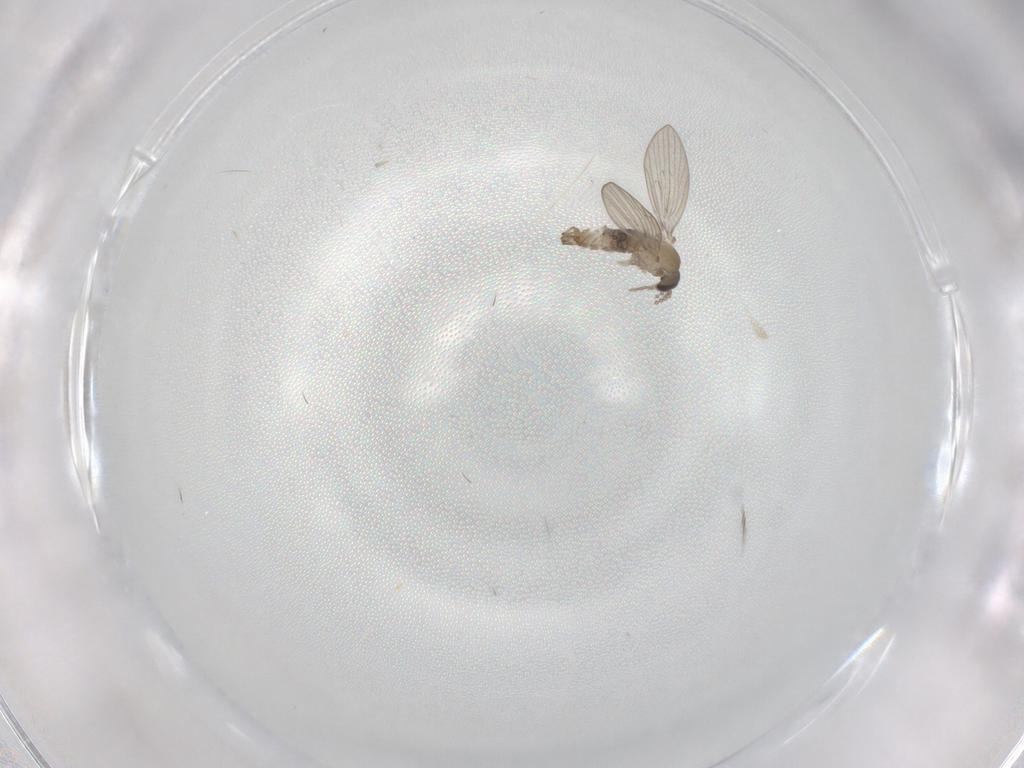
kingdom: Animalia
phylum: Arthropoda
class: Insecta
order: Diptera
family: Psychodidae
